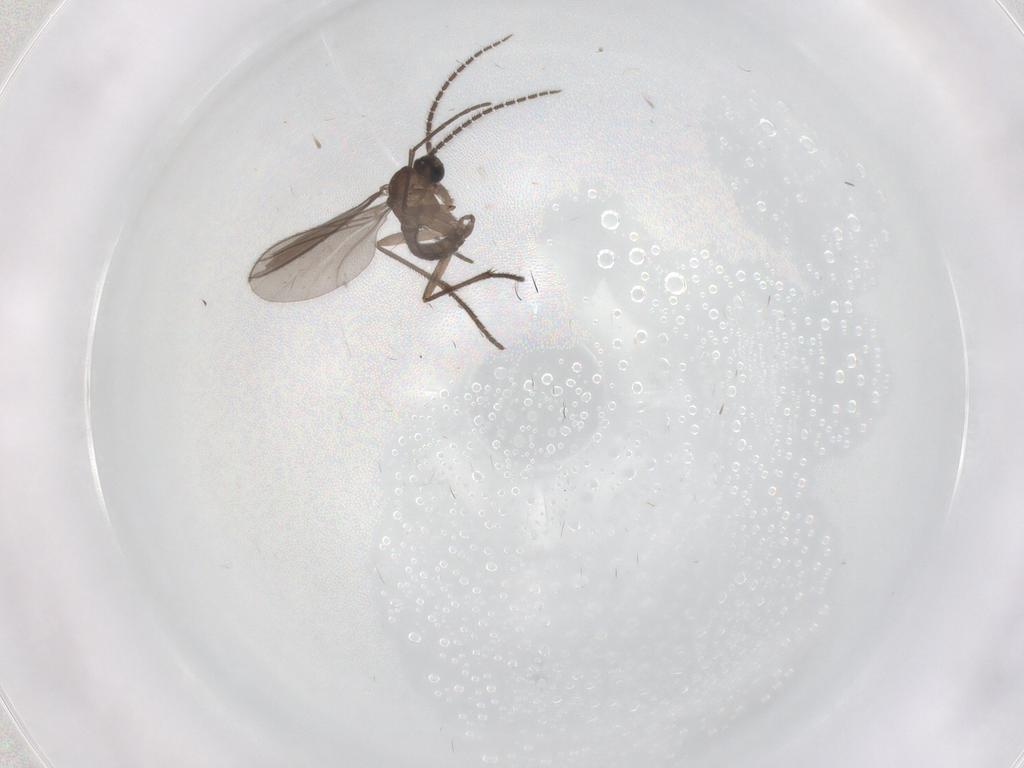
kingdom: Animalia
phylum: Arthropoda
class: Insecta
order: Diptera
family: Sciaridae
